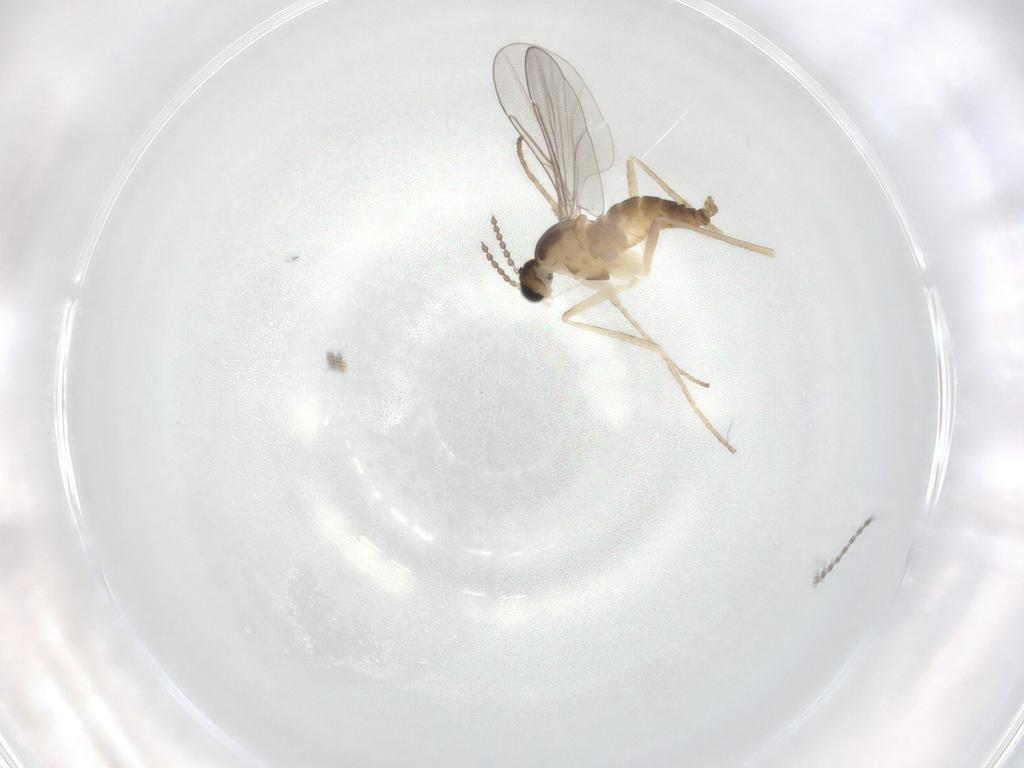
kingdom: Animalia
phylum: Arthropoda
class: Insecta
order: Diptera
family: Cecidomyiidae
